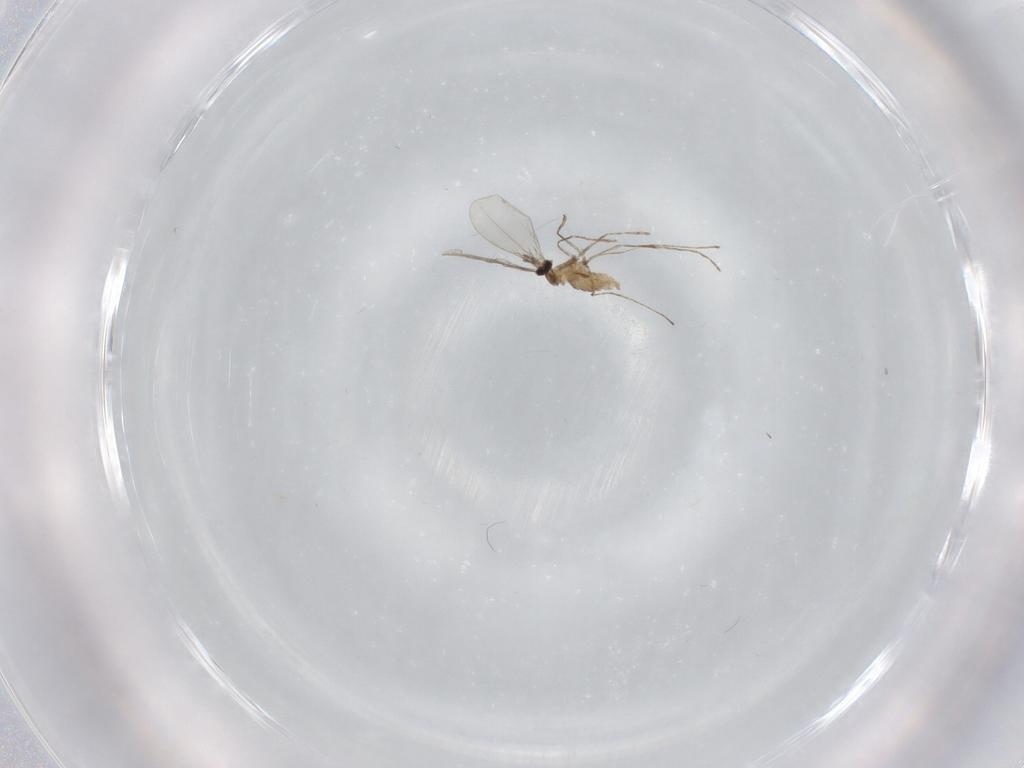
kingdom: Animalia
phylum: Arthropoda
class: Insecta
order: Diptera
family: Cecidomyiidae
